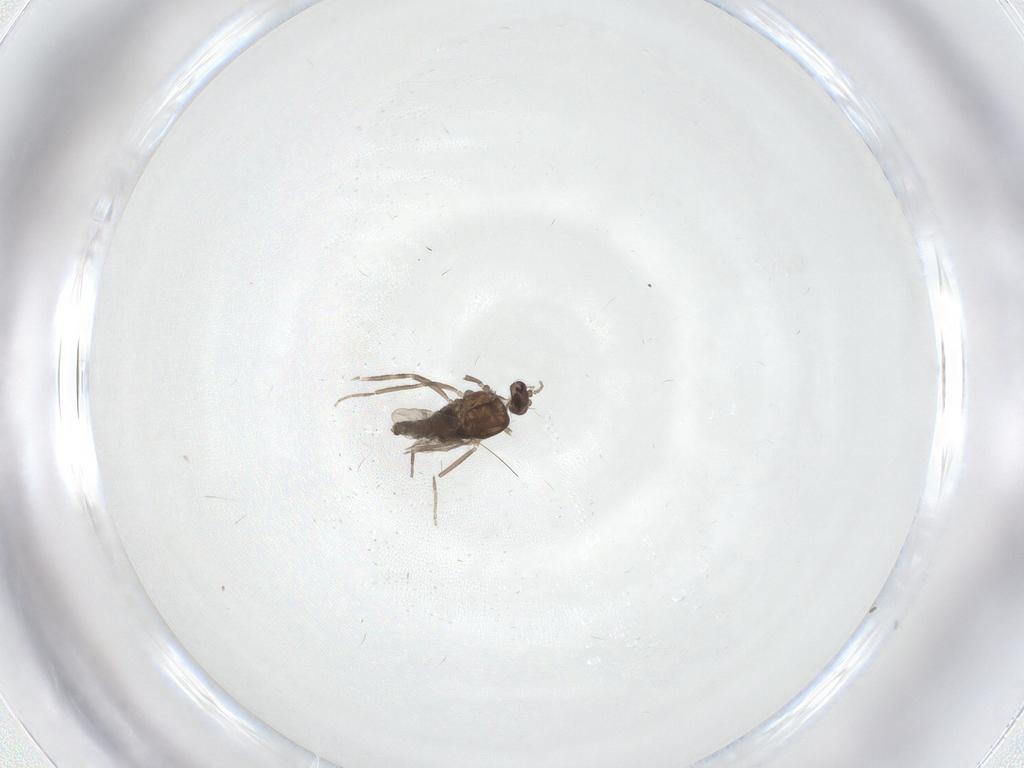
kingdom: Animalia
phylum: Arthropoda
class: Insecta
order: Diptera
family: Ceratopogonidae
